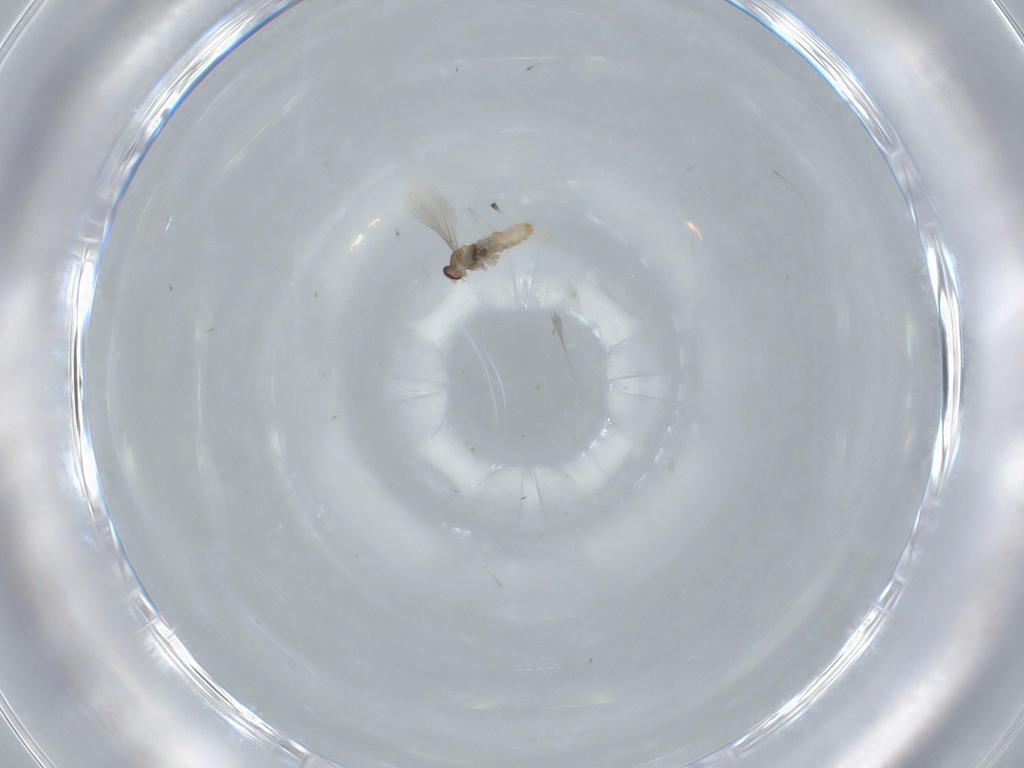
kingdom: Animalia
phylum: Arthropoda
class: Insecta
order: Diptera
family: Cecidomyiidae
